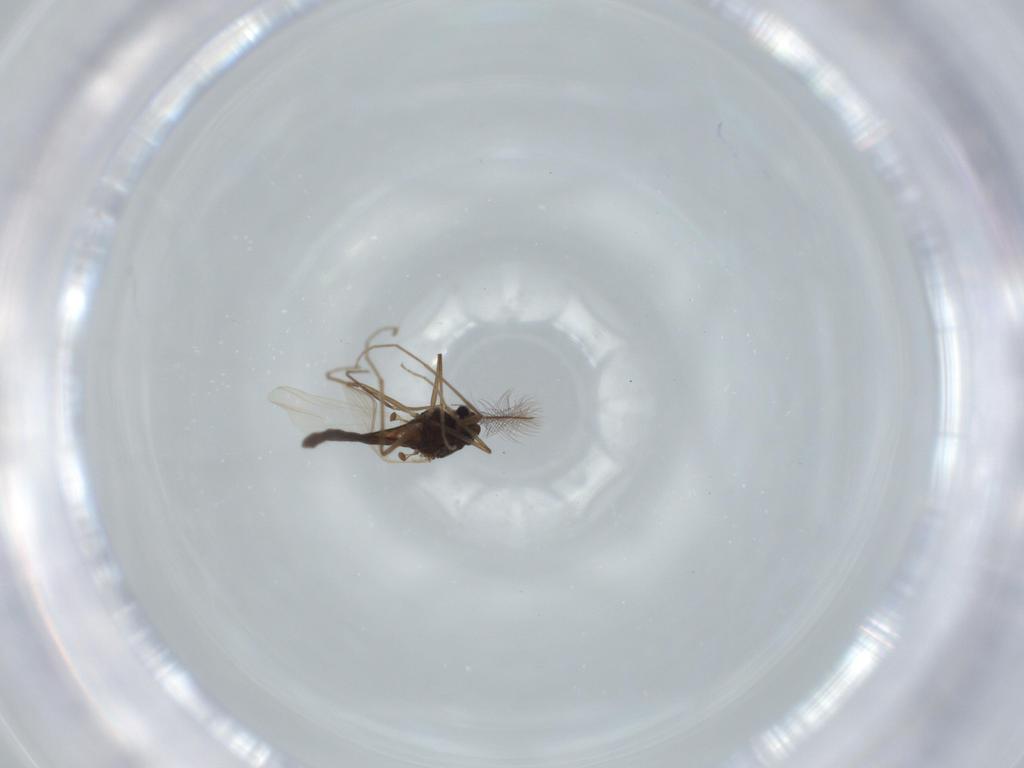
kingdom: Animalia
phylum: Arthropoda
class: Insecta
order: Diptera
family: Chironomidae
